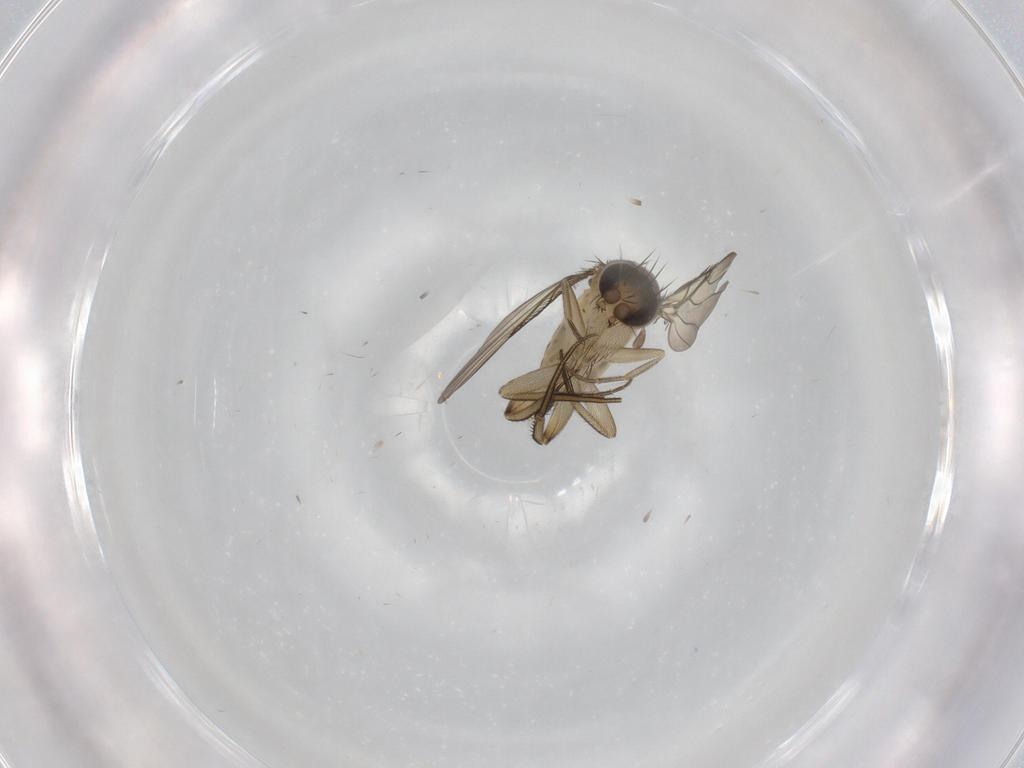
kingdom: Animalia
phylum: Arthropoda
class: Insecta
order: Diptera
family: Phoridae
